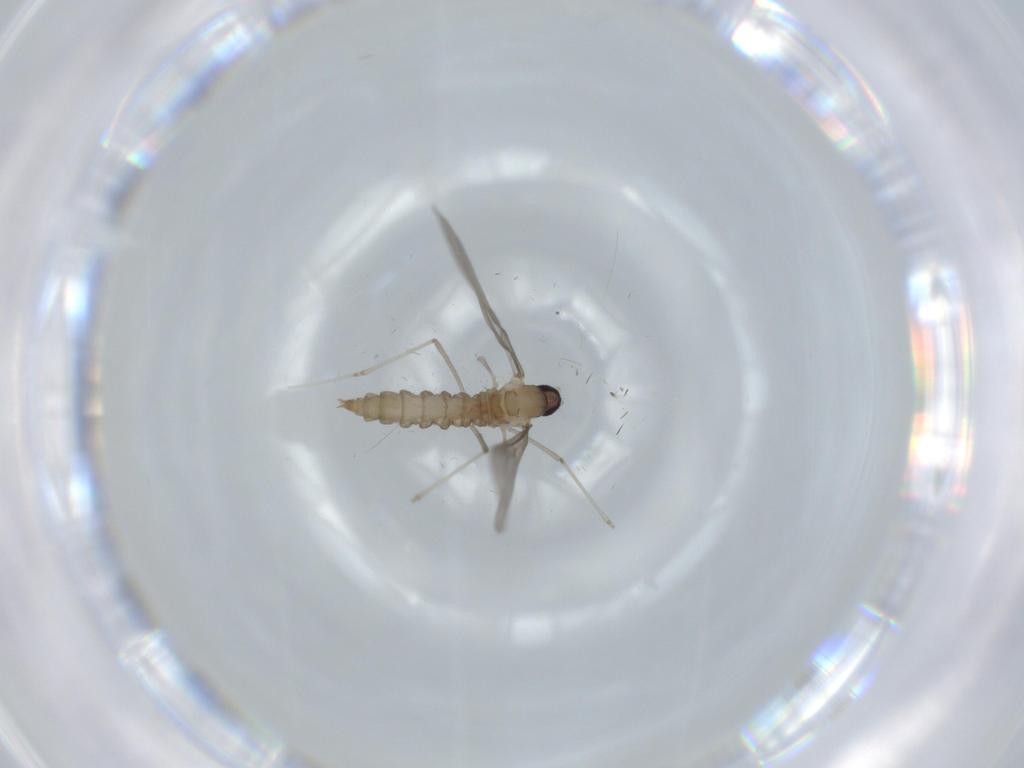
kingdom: Animalia
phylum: Arthropoda
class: Insecta
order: Diptera
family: Cecidomyiidae
